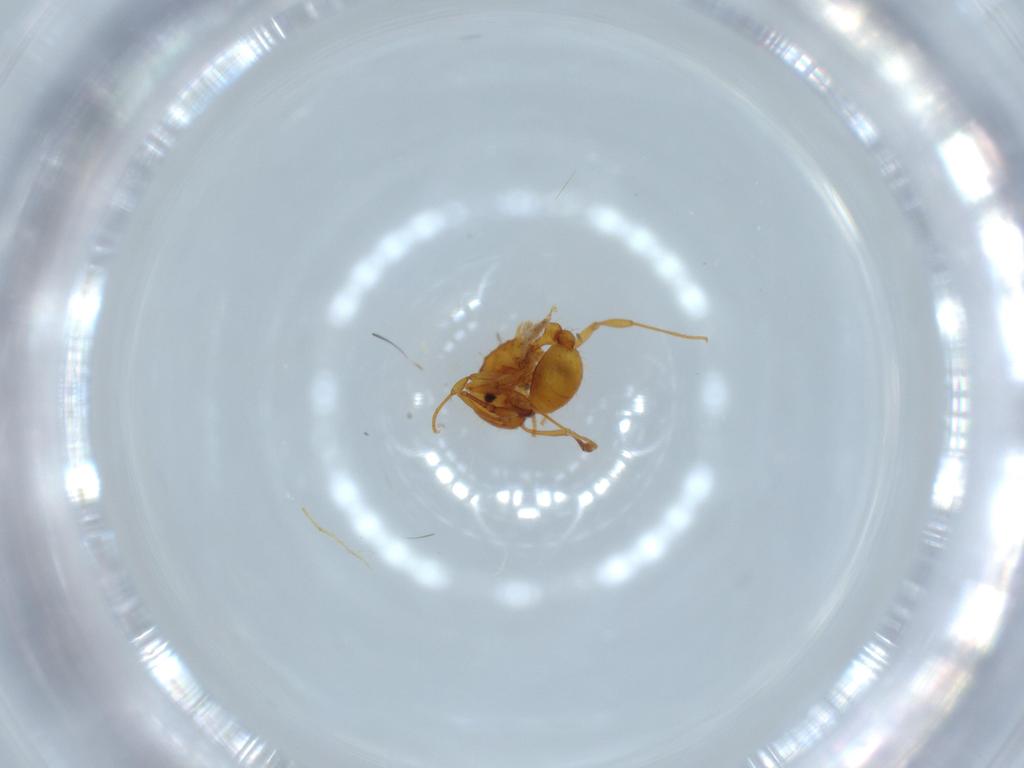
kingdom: Animalia
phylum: Arthropoda
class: Insecta
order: Hymenoptera
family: Formicidae
